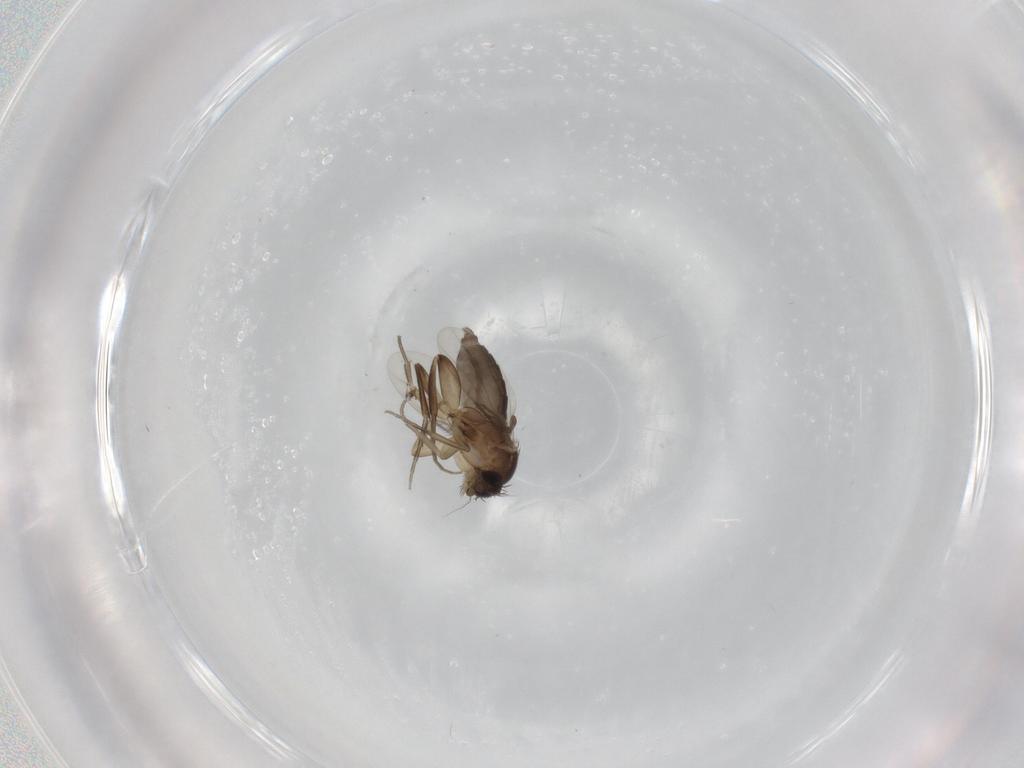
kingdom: Animalia
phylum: Arthropoda
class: Insecta
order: Diptera
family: Phoridae
